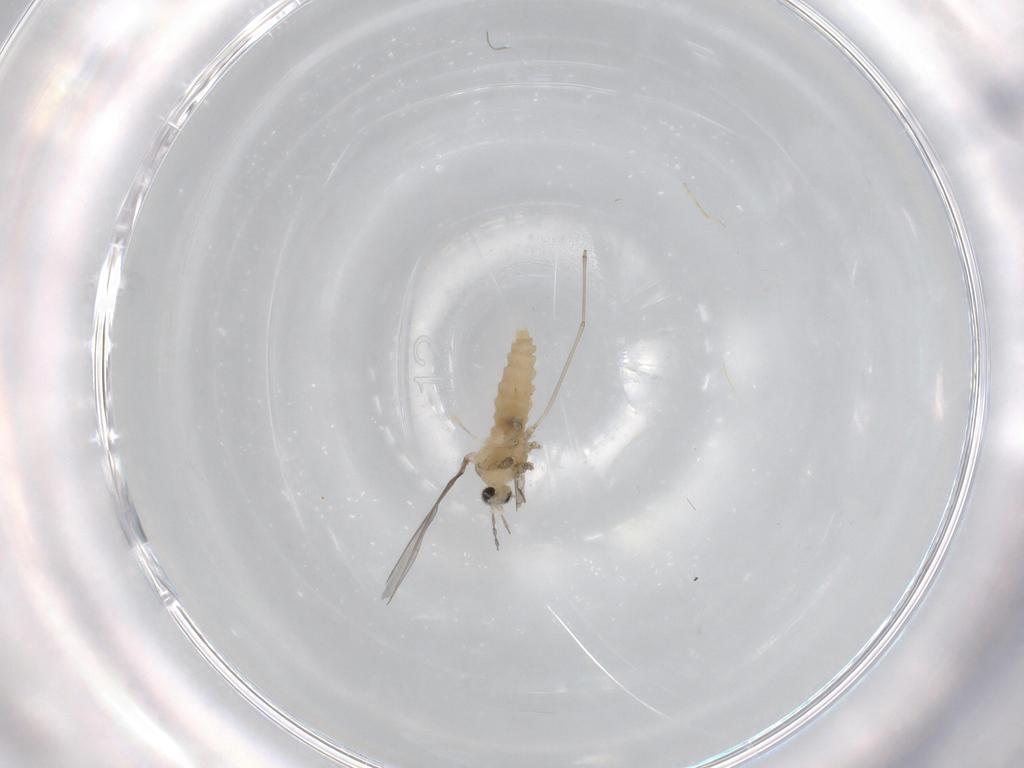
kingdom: Animalia
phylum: Arthropoda
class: Insecta
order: Diptera
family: Cecidomyiidae
